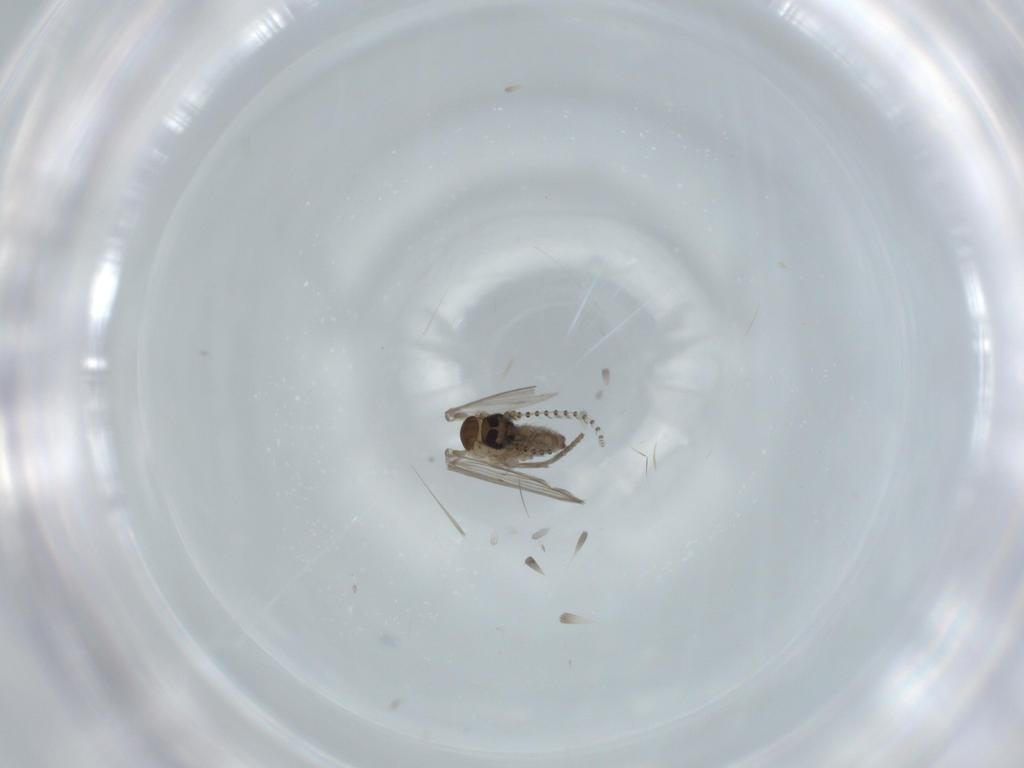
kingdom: Animalia
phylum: Arthropoda
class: Insecta
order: Diptera
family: Psychodidae
